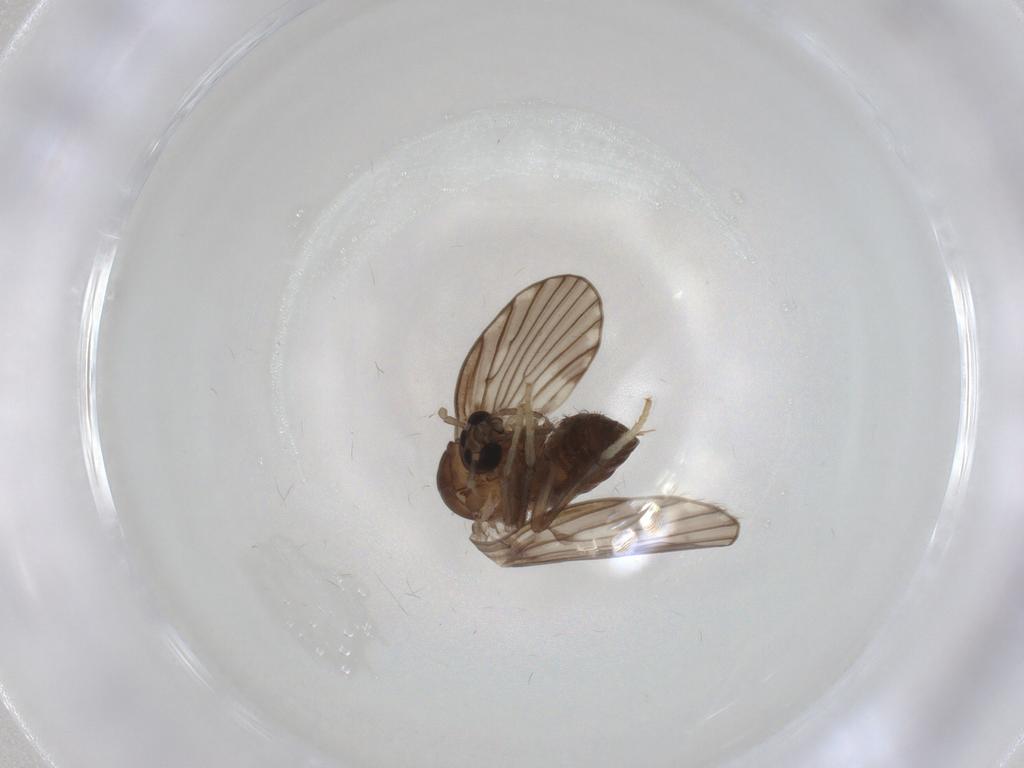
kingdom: Animalia
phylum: Arthropoda
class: Insecta
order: Diptera
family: Psychodidae
